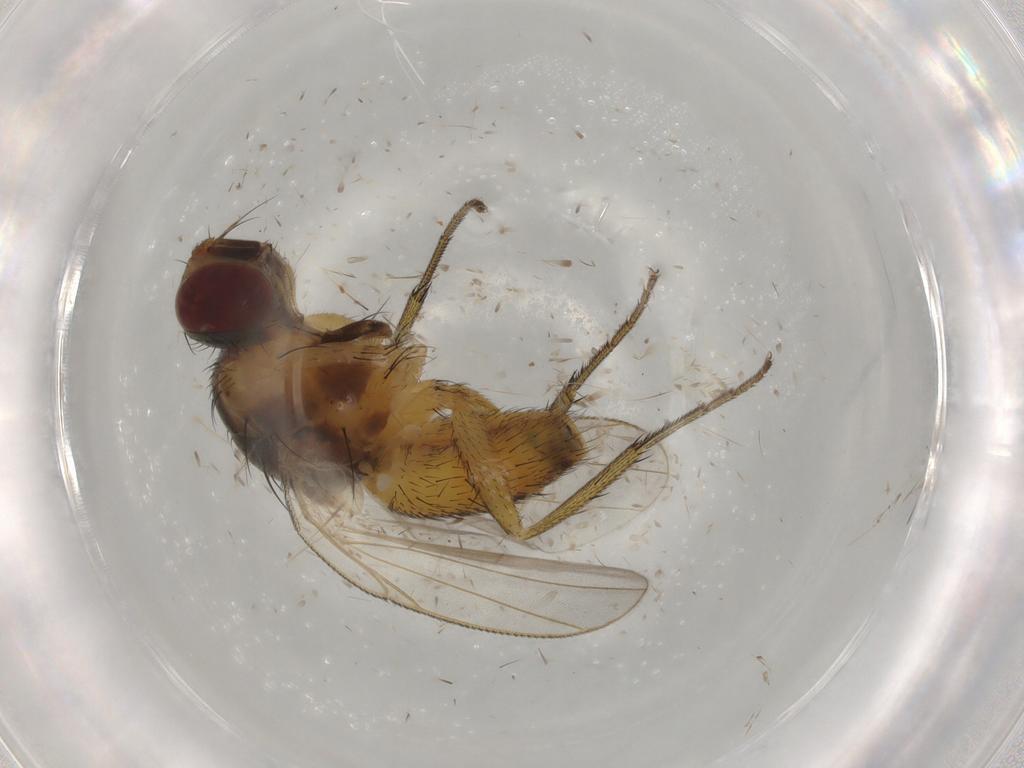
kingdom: Animalia
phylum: Arthropoda
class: Insecta
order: Diptera
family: Muscidae
